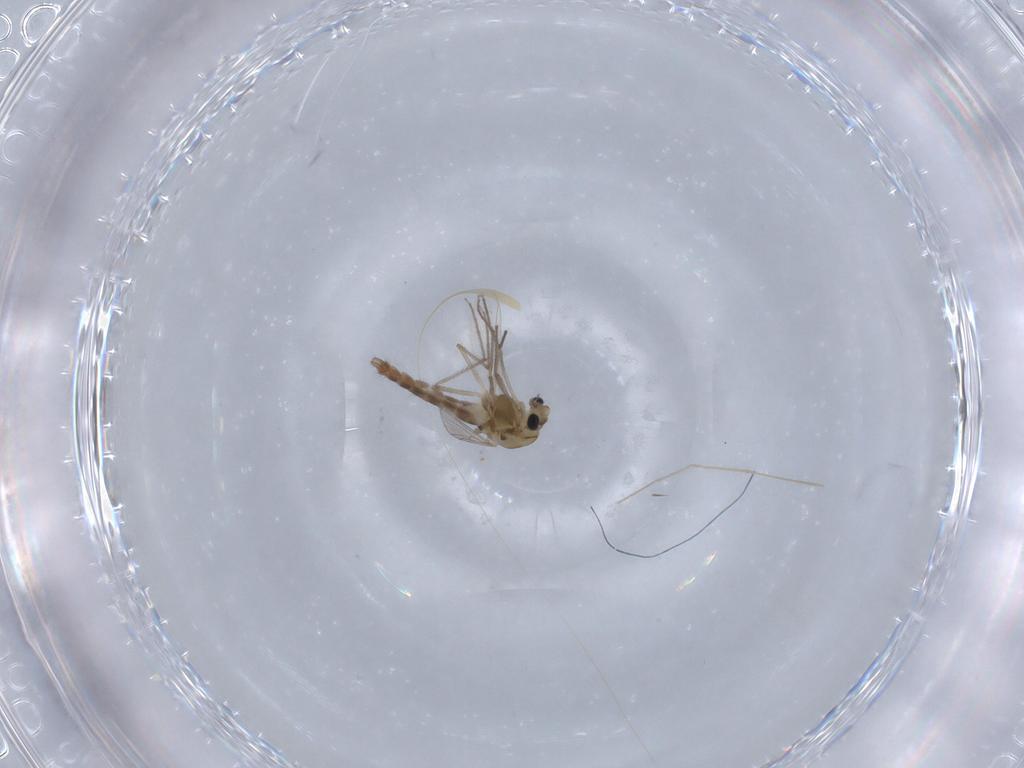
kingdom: Animalia
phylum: Arthropoda
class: Insecta
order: Diptera
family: Chironomidae
